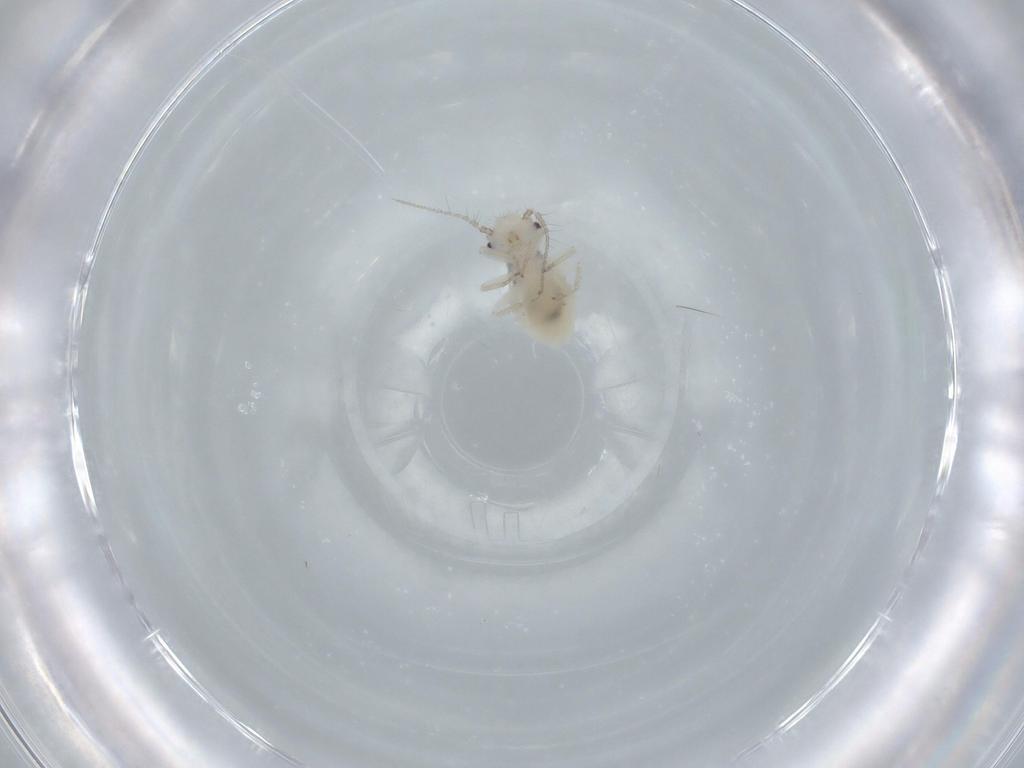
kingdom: Animalia
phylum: Arthropoda
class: Insecta
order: Psocodea
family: Pseudocaeciliidae
